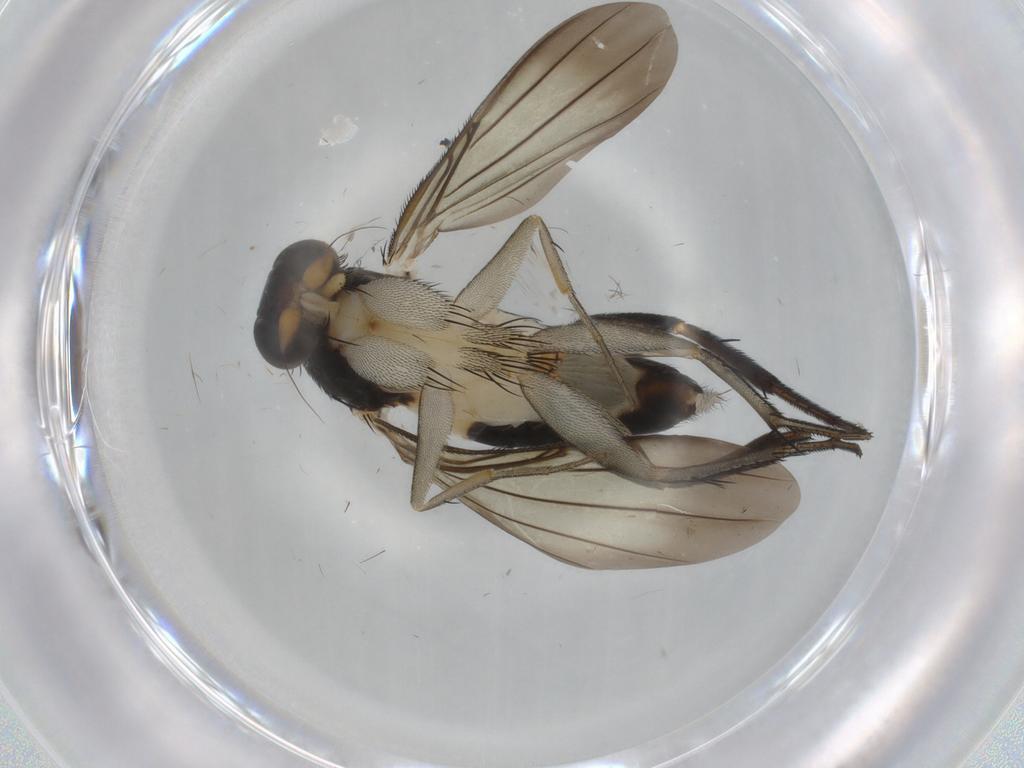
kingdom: Animalia
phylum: Arthropoda
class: Insecta
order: Diptera
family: Phoridae
